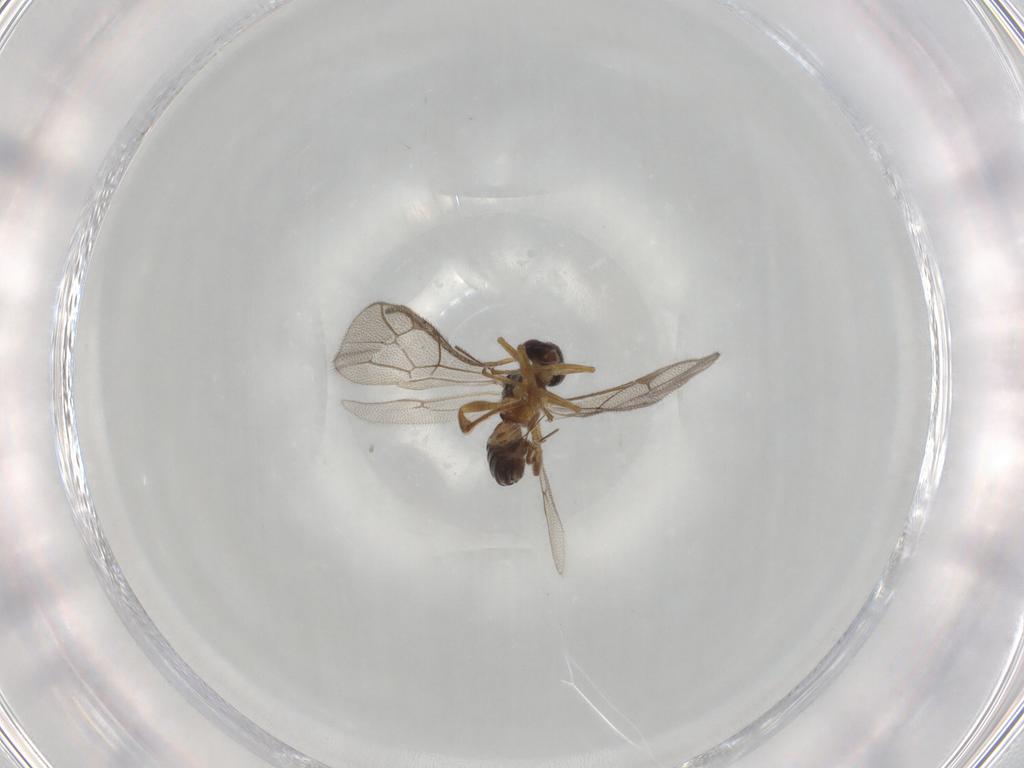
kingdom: Animalia
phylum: Arthropoda
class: Insecta
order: Hymenoptera
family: Ichneumonidae
